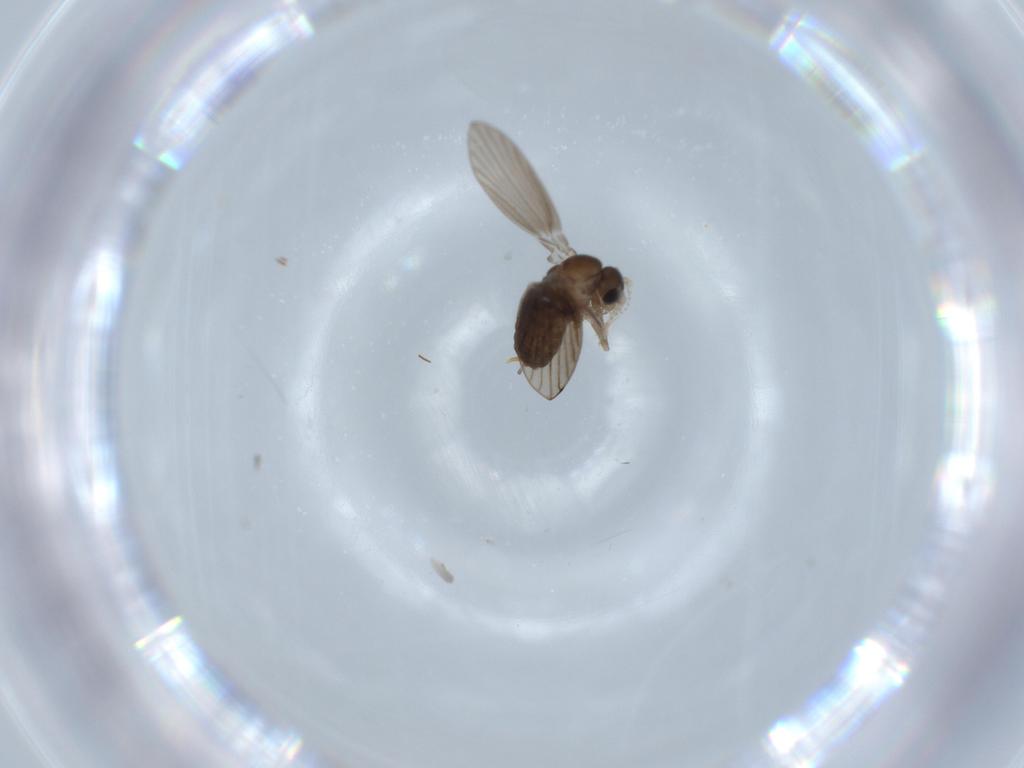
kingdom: Animalia
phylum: Arthropoda
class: Insecta
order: Diptera
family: Psychodidae
